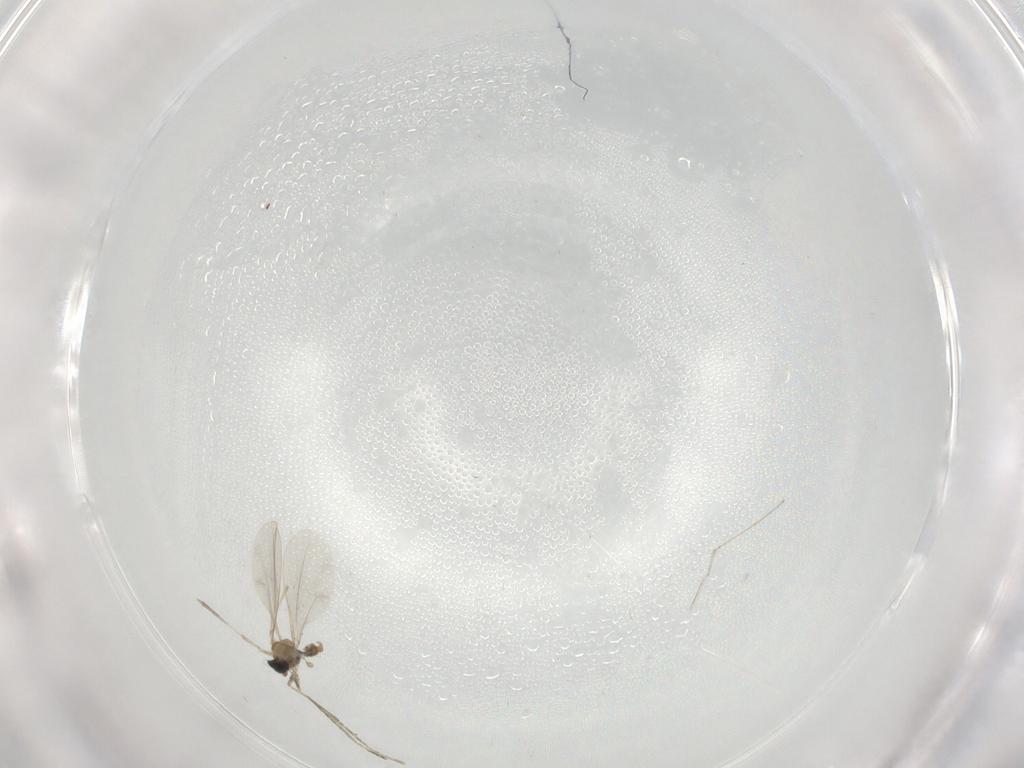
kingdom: Animalia
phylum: Arthropoda
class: Insecta
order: Diptera
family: Cecidomyiidae
